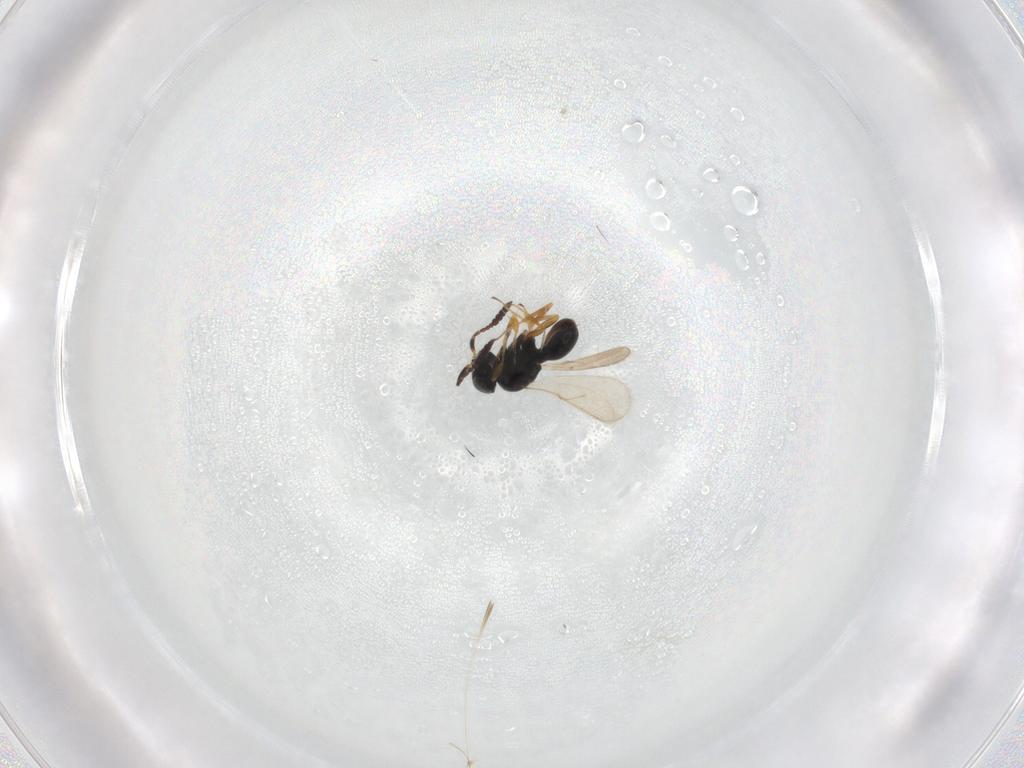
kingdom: Animalia
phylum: Arthropoda
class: Insecta
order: Hymenoptera
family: Scelionidae
